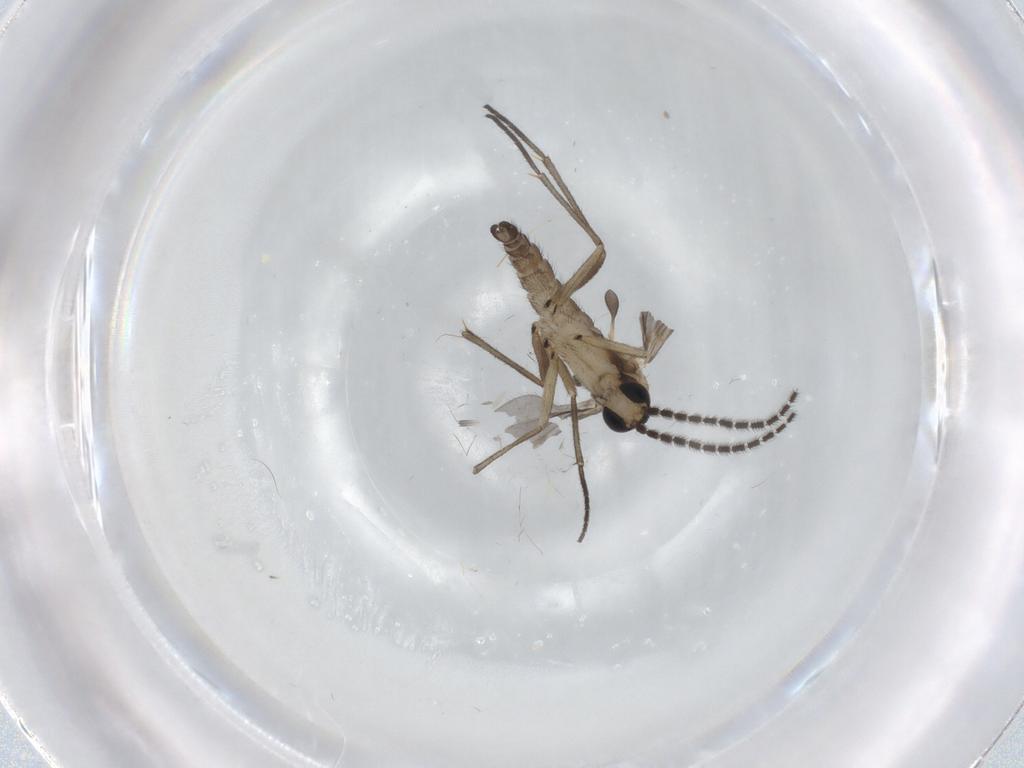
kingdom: Animalia
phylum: Arthropoda
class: Insecta
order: Diptera
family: Sciaridae
